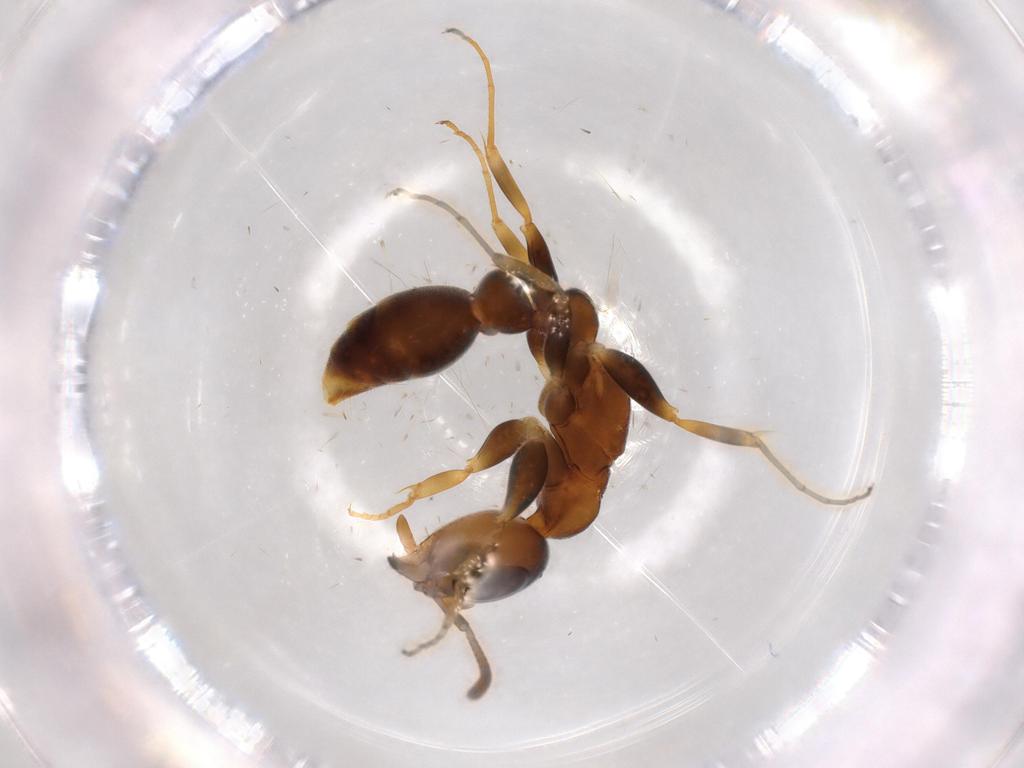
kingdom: Animalia
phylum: Arthropoda
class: Insecta
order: Hymenoptera
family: Formicidae
